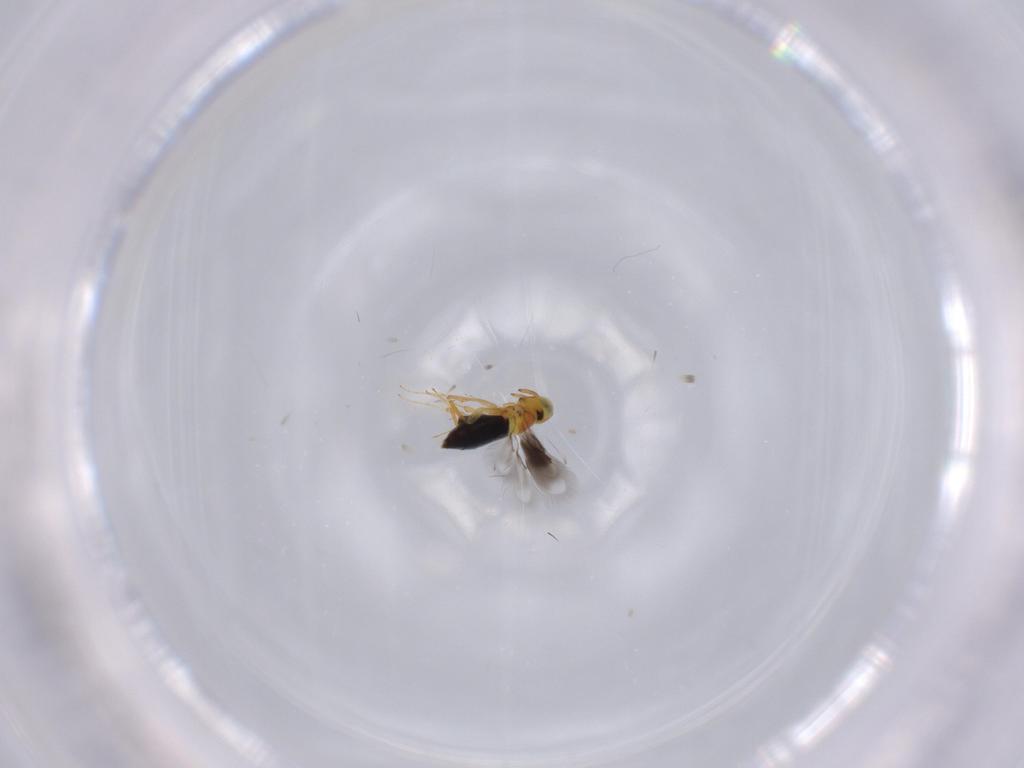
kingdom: Animalia
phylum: Arthropoda
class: Insecta
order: Hymenoptera
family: Signiphoridae
